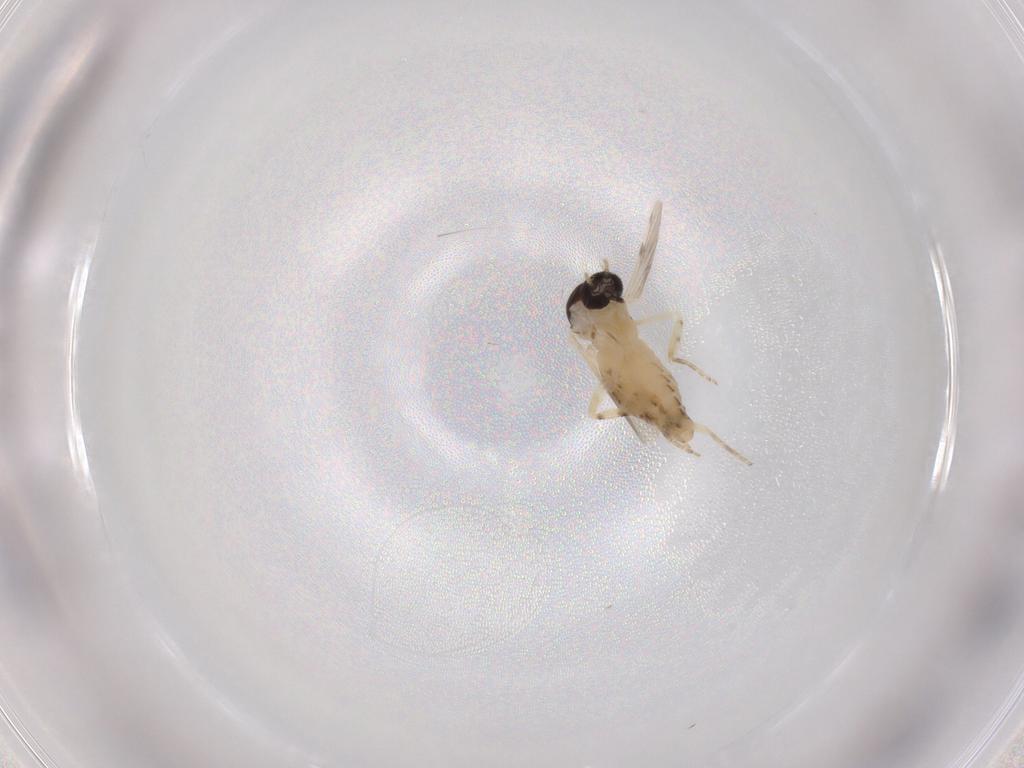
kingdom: Animalia
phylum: Arthropoda
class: Insecta
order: Diptera
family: Ceratopogonidae
